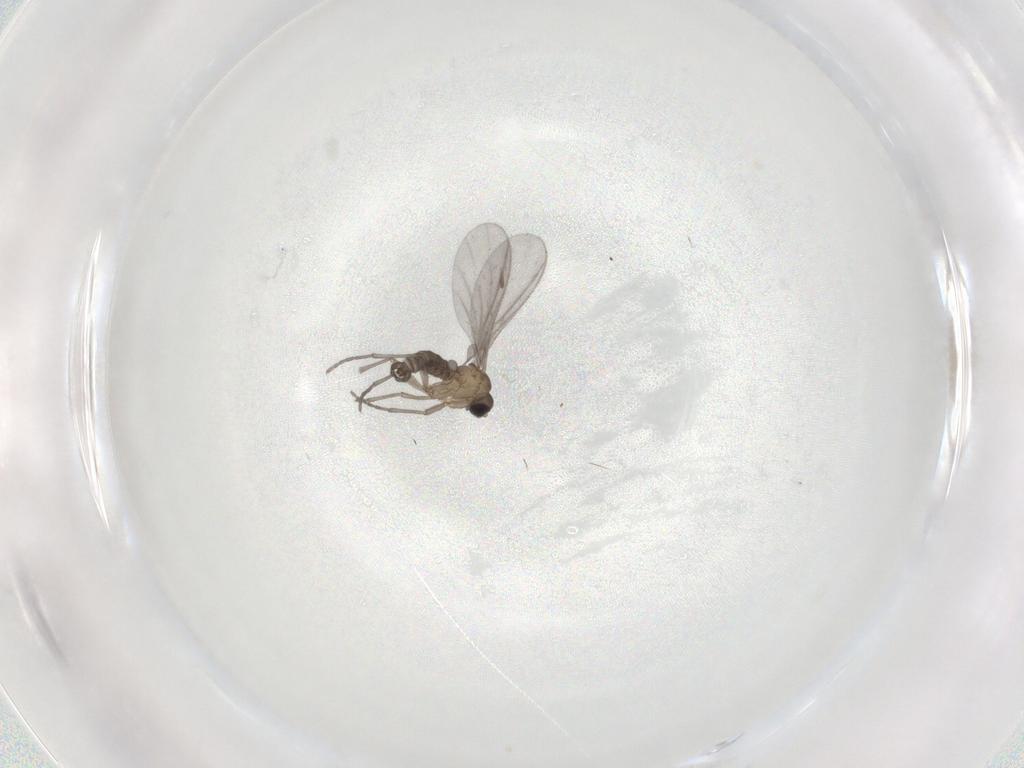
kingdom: Animalia
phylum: Arthropoda
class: Insecta
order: Diptera
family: Sciaridae
